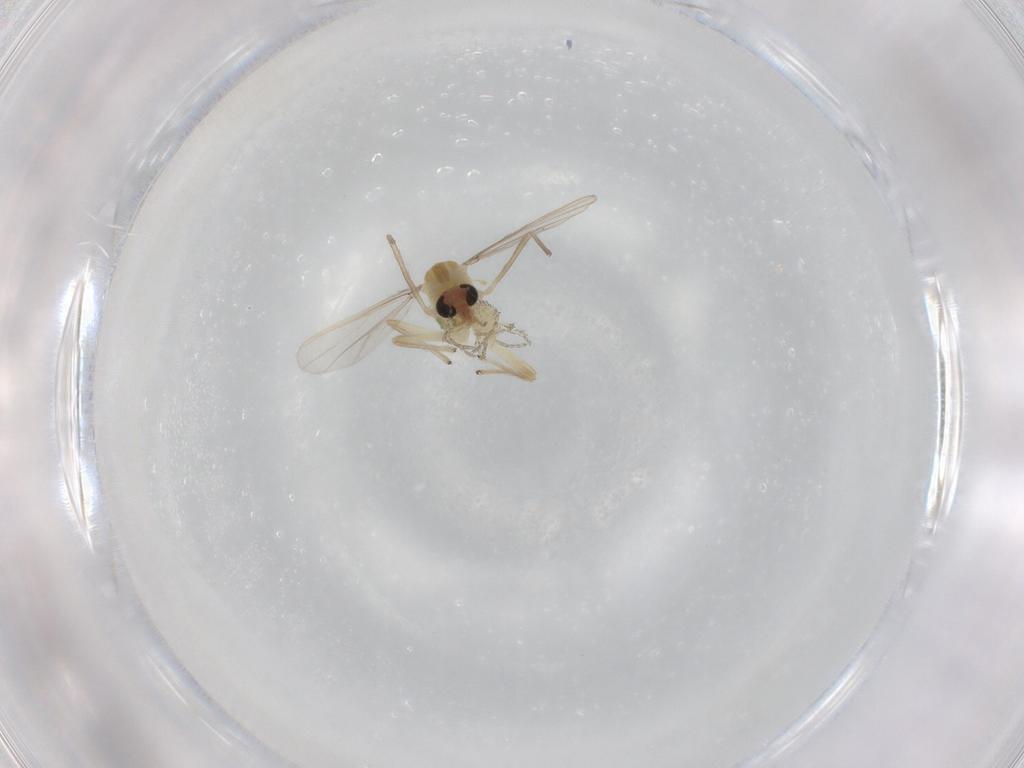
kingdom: Animalia
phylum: Arthropoda
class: Insecta
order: Diptera
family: Chironomidae
